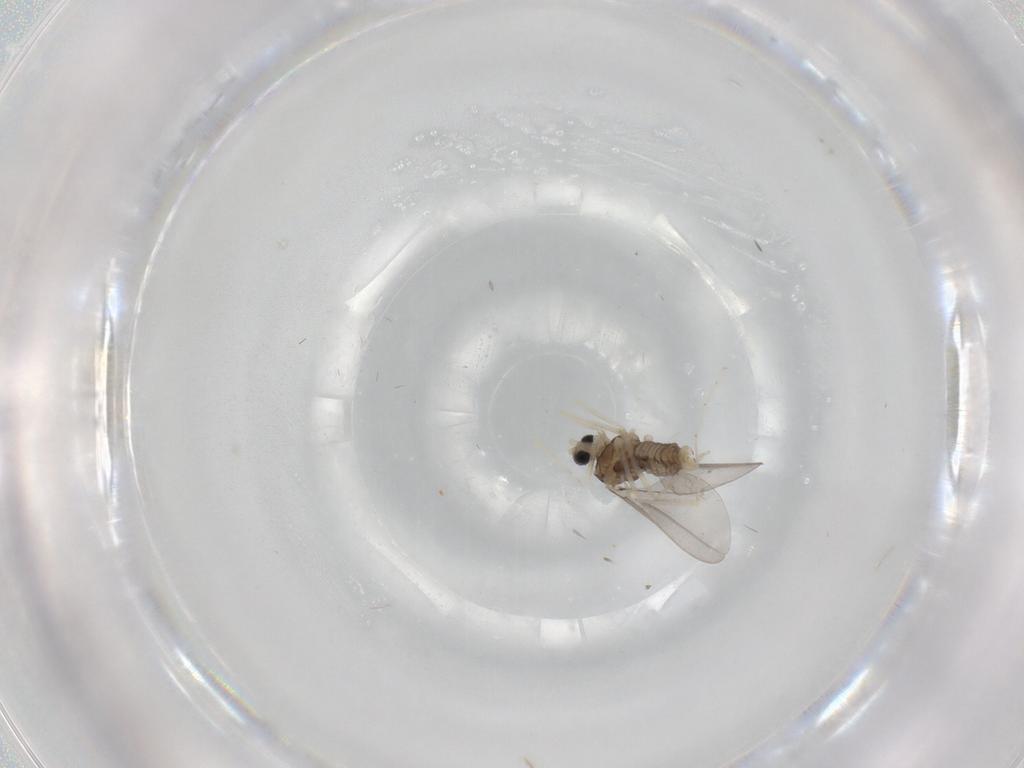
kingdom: Animalia
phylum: Arthropoda
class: Insecta
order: Diptera
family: Cecidomyiidae
